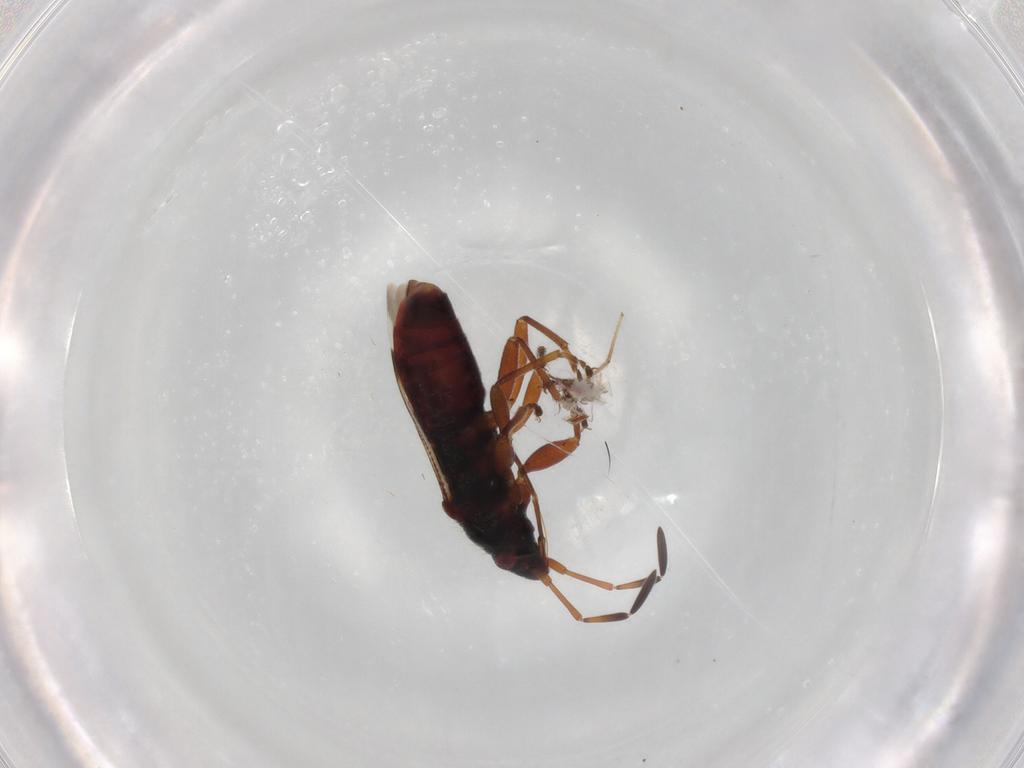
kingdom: Animalia
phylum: Arthropoda
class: Insecta
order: Hemiptera
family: Rhyparochromidae
